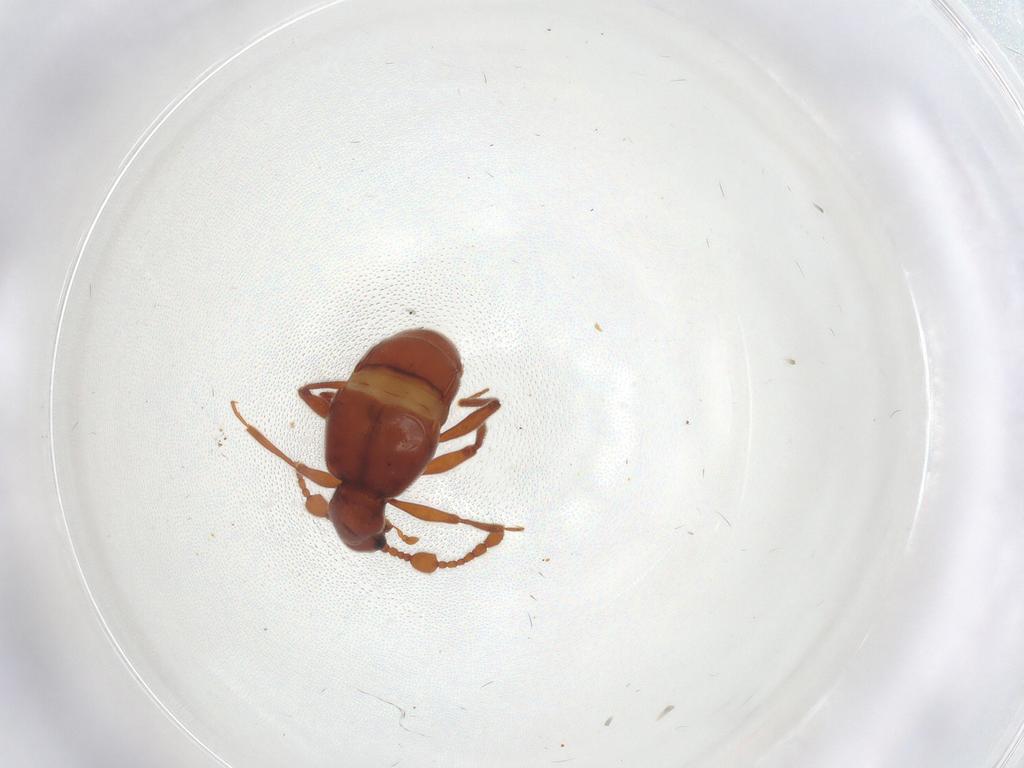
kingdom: Animalia
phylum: Arthropoda
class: Insecta
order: Coleoptera
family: Staphylinidae
